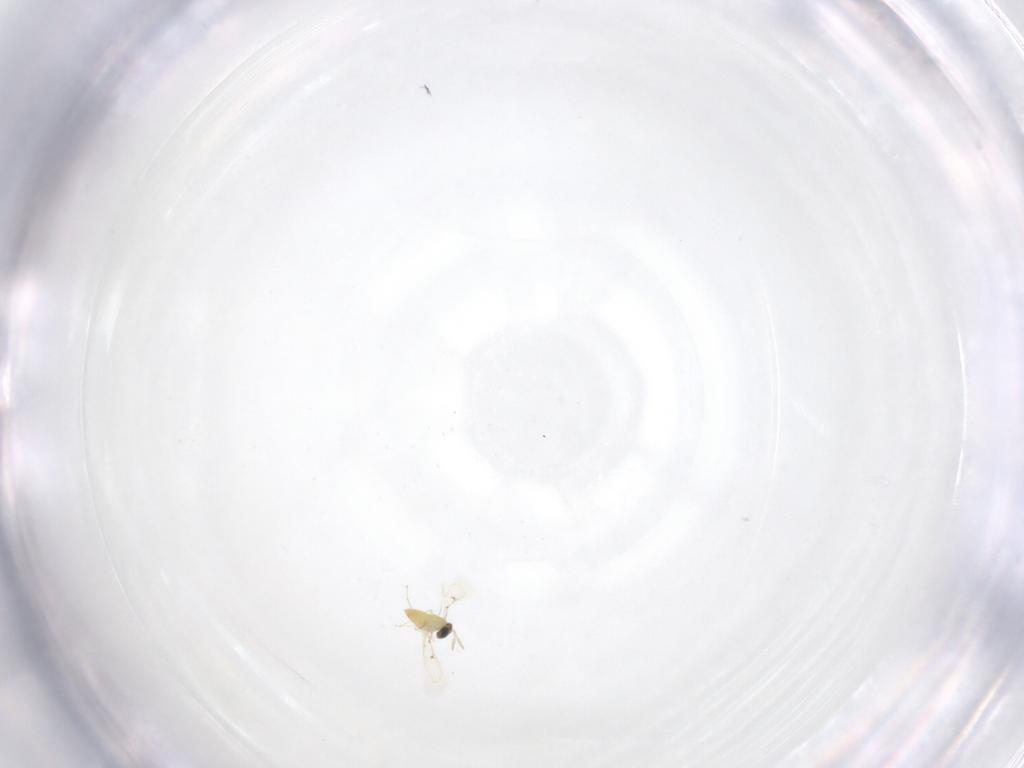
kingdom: Animalia
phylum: Arthropoda
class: Insecta
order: Hymenoptera
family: Trichogrammatidae
